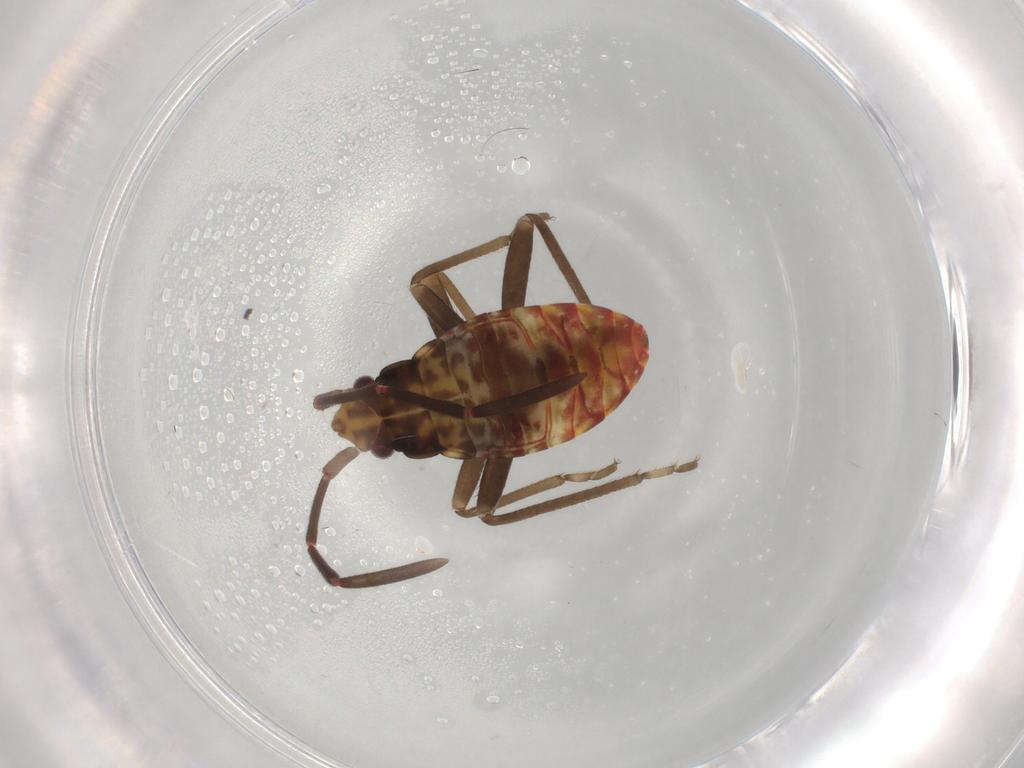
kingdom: Animalia
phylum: Arthropoda
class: Insecta
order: Hemiptera
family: Rhyparochromidae
